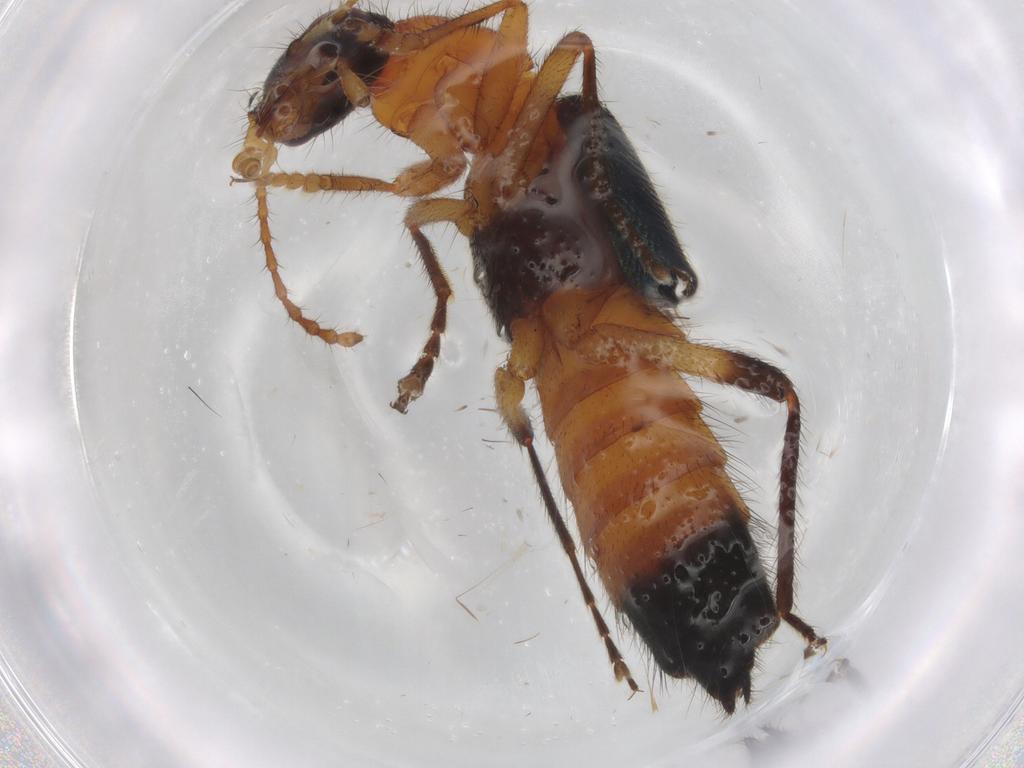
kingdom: Animalia
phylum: Arthropoda
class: Insecta
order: Coleoptera
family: Staphylinidae
